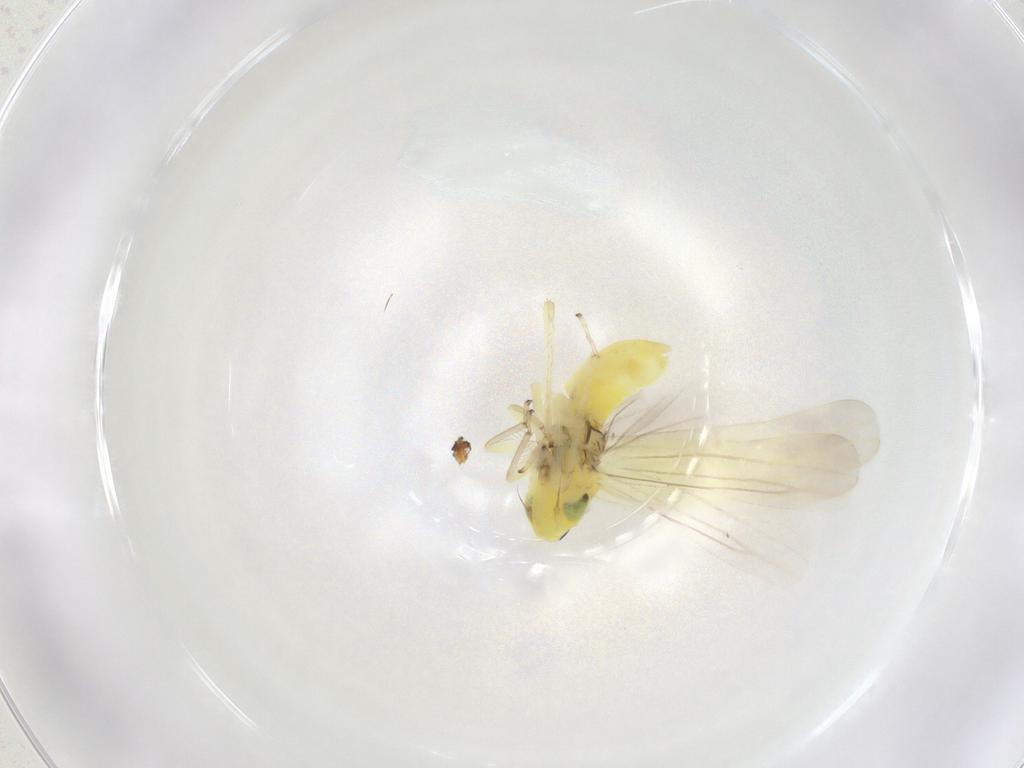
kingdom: Animalia
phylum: Arthropoda
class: Insecta
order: Hemiptera
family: Cicadellidae
